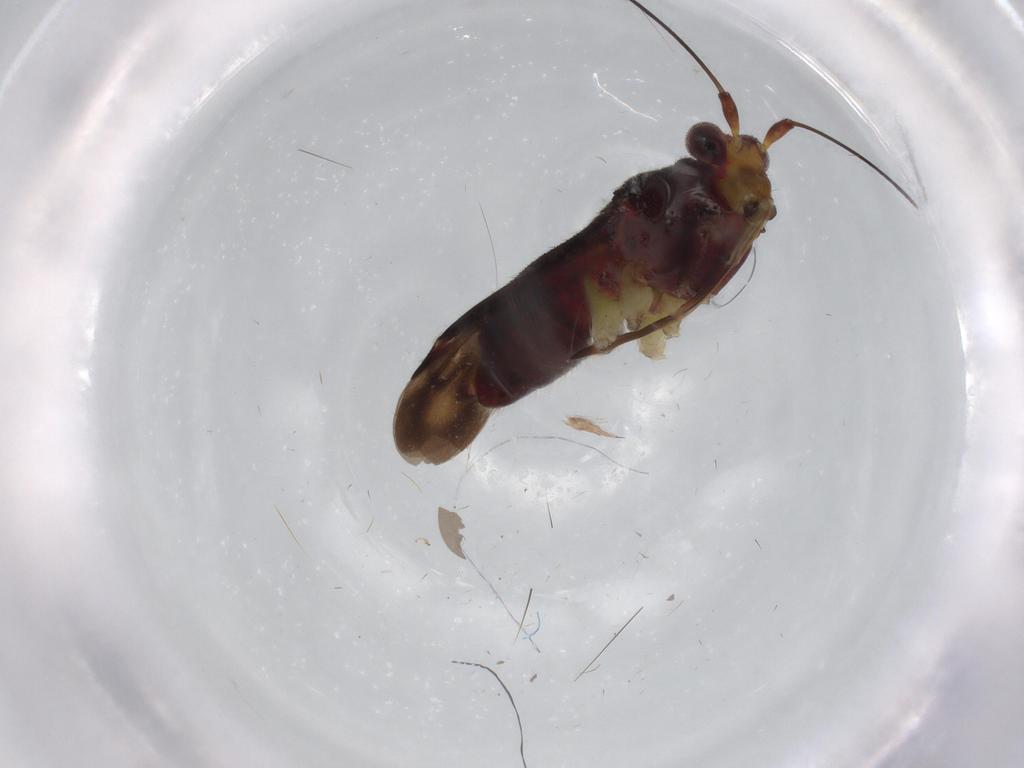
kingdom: Animalia
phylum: Arthropoda
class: Insecta
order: Hemiptera
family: Miridae
